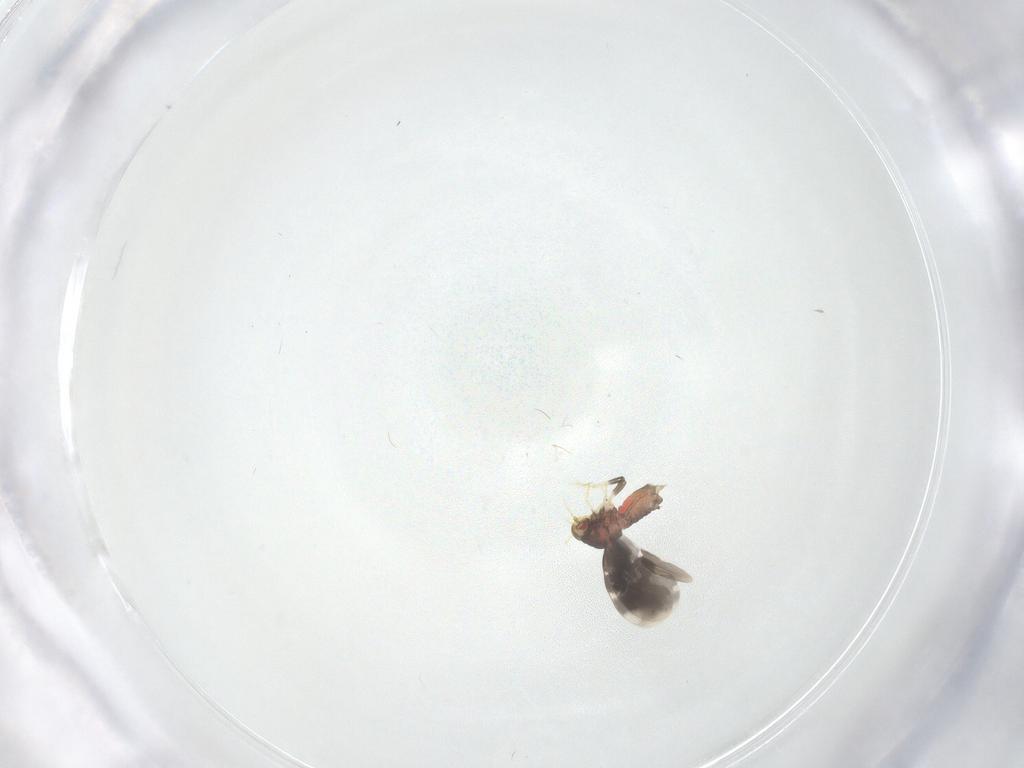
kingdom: Animalia
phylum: Arthropoda
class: Insecta
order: Hemiptera
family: Aleyrodidae
